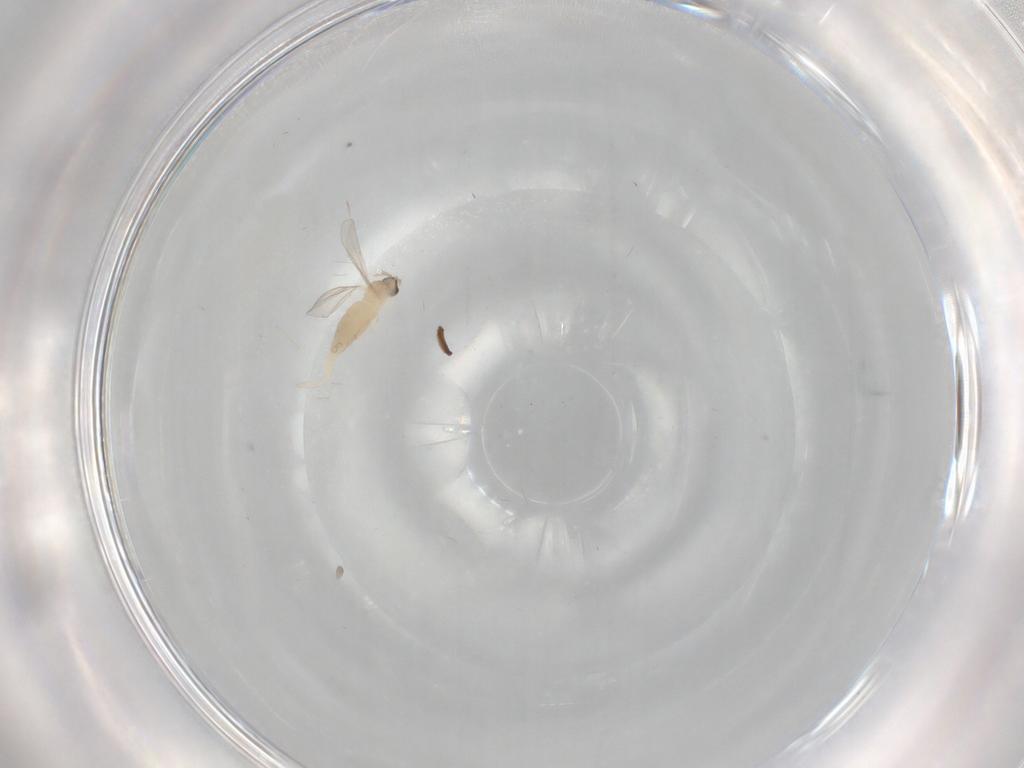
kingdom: Animalia
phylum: Arthropoda
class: Insecta
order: Diptera
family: Phoridae
